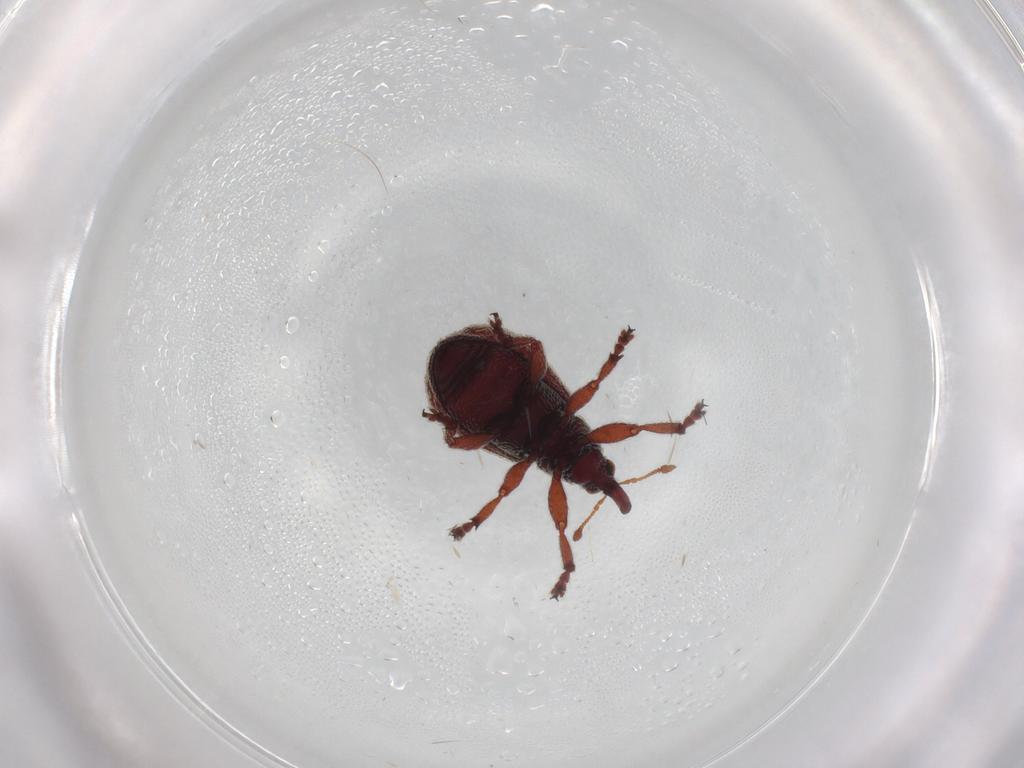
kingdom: Animalia
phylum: Arthropoda
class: Insecta
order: Coleoptera
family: Brentidae
